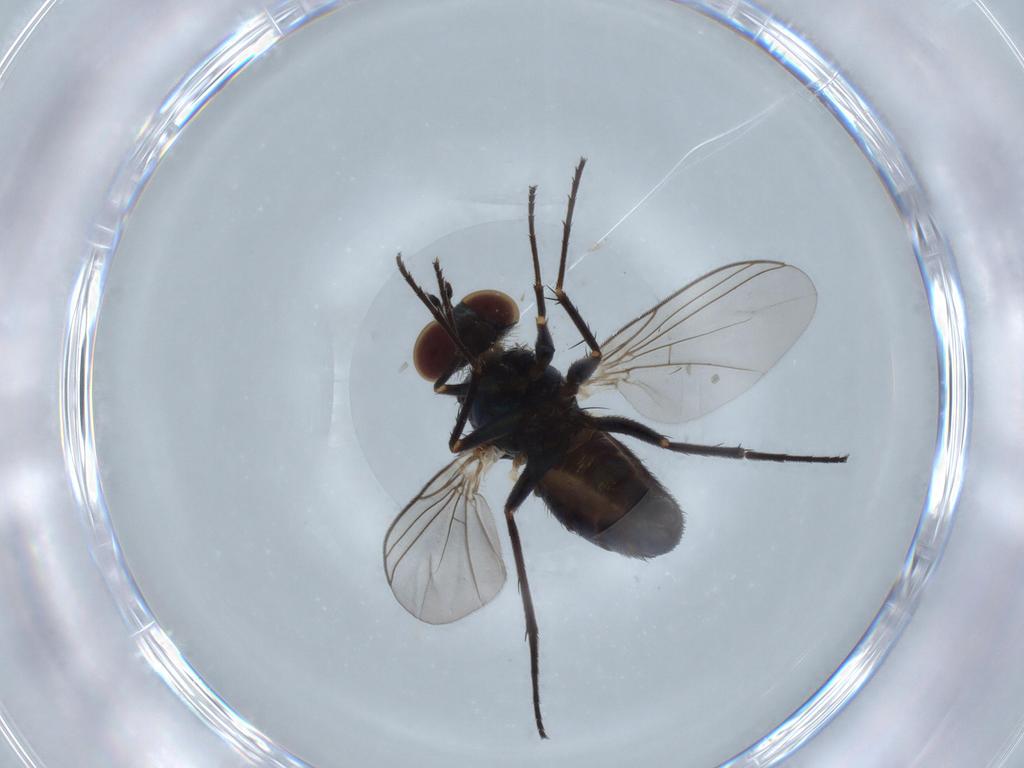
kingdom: Animalia
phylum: Arthropoda
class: Insecta
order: Diptera
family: Dolichopodidae
